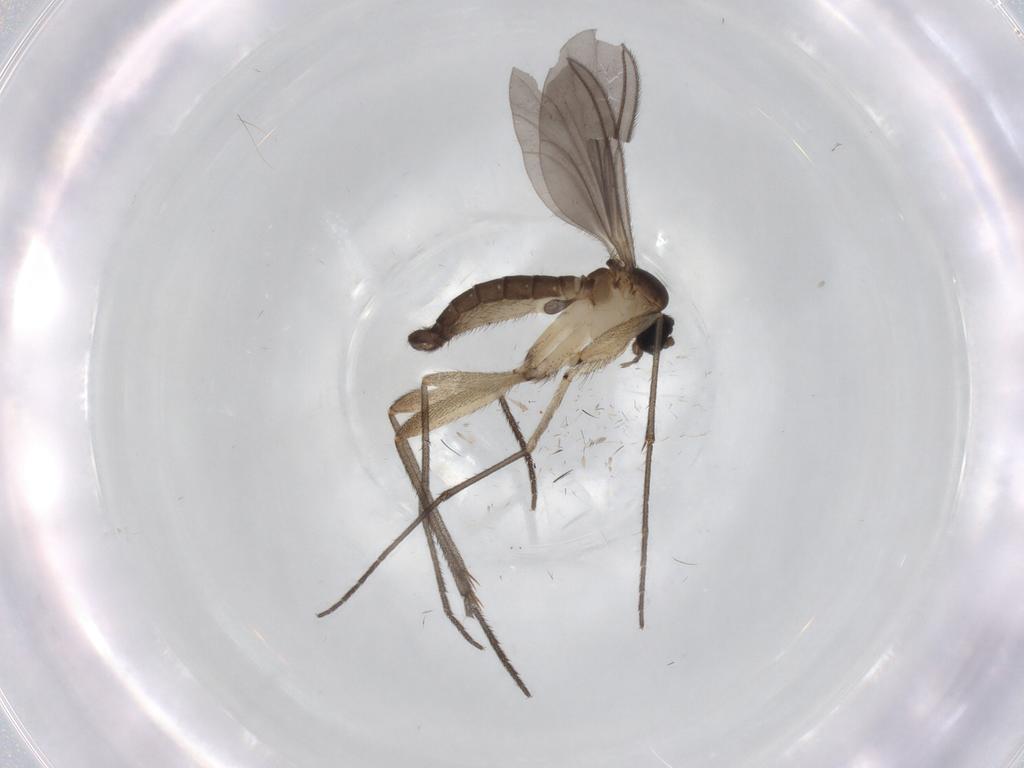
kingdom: Animalia
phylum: Arthropoda
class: Insecta
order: Diptera
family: Sciaridae
